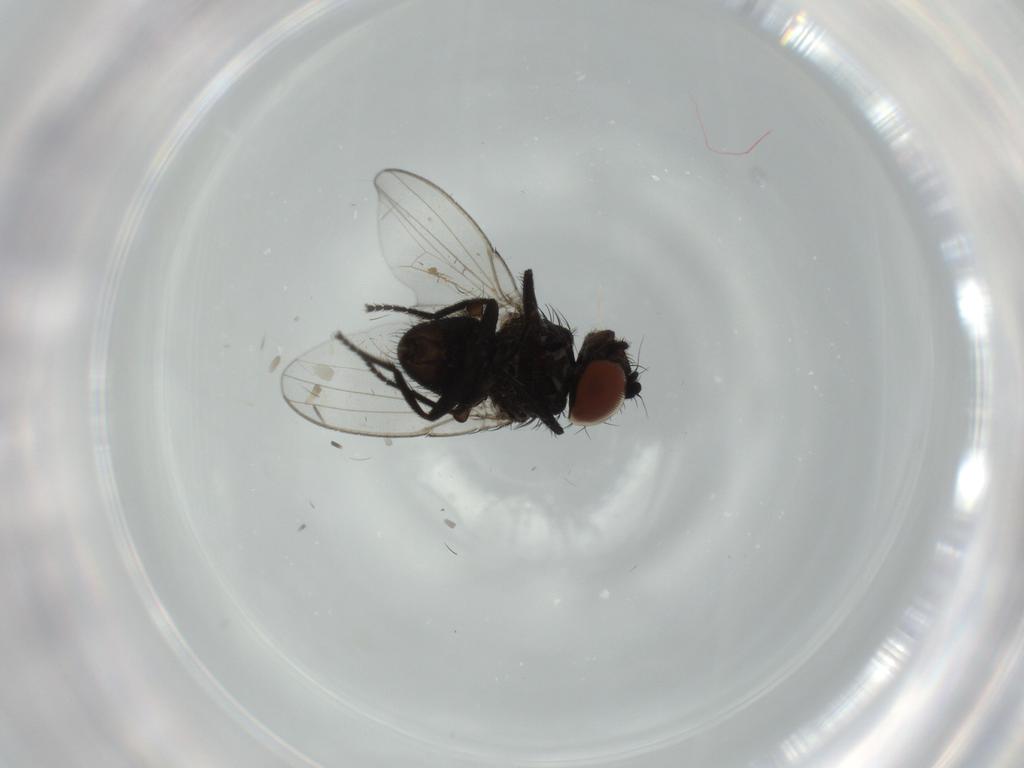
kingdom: Animalia
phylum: Arthropoda
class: Insecta
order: Diptera
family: Milichiidae
